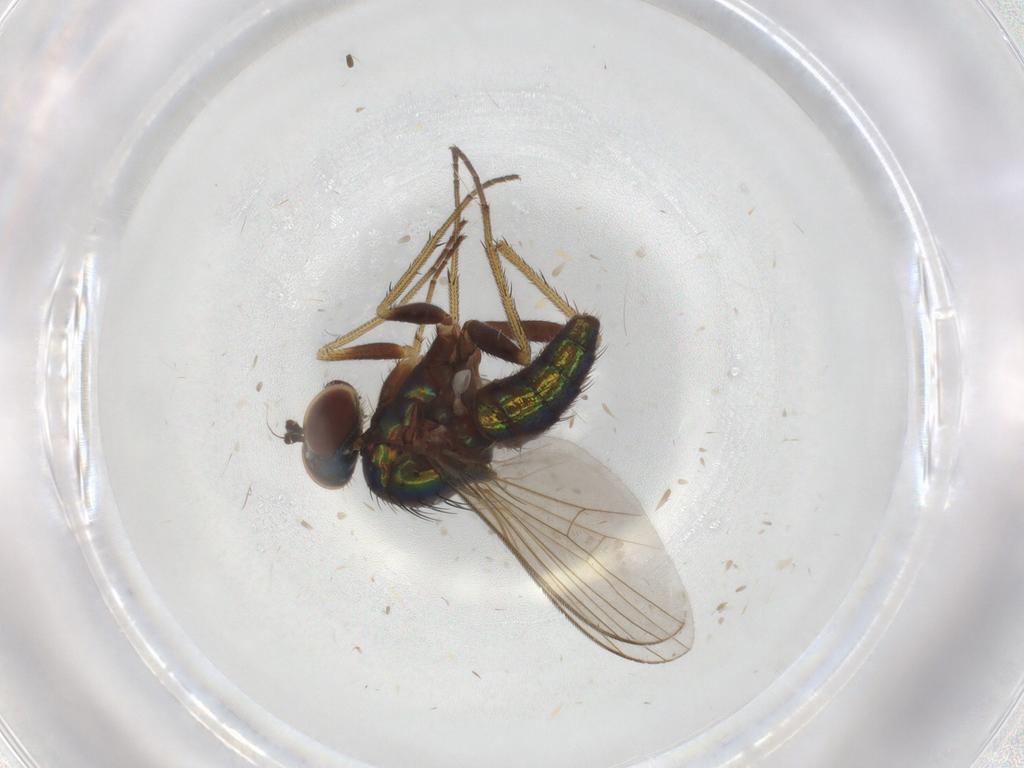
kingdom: Animalia
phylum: Arthropoda
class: Insecta
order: Diptera
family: Dolichopodidae
